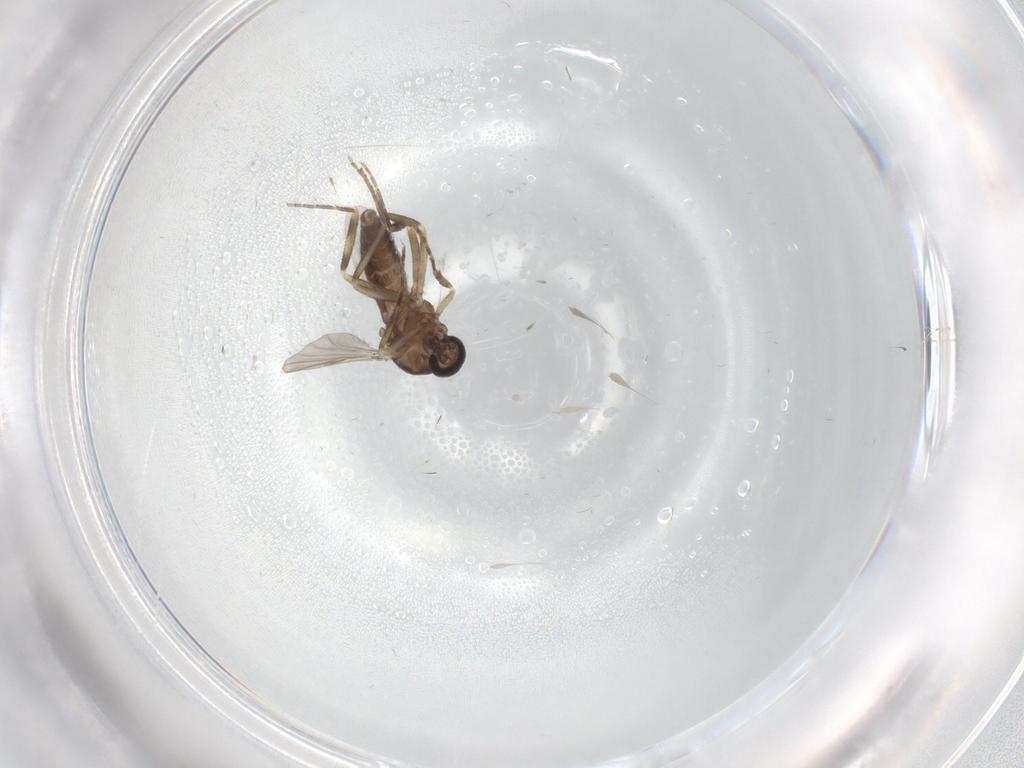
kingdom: Animalia
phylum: Arthropoda
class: Insecta
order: Diptera
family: Ceratopogonidae
